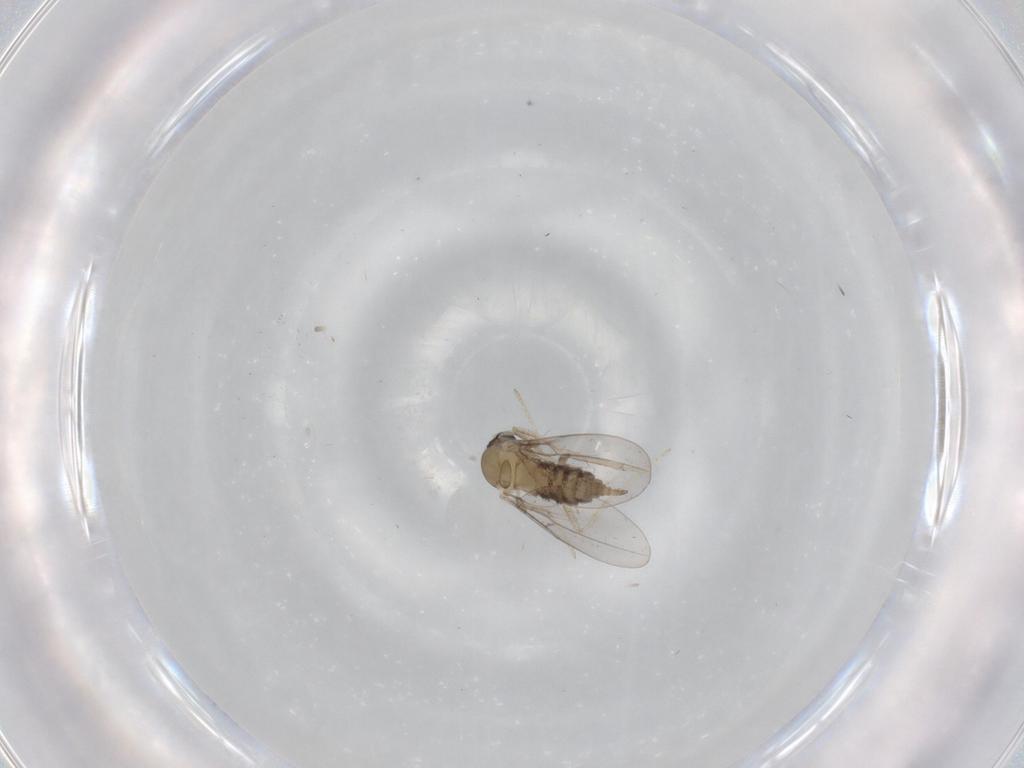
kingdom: Animalia
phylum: Arthropoda
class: Insecta
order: Diptera
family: Cecidomyiidae
